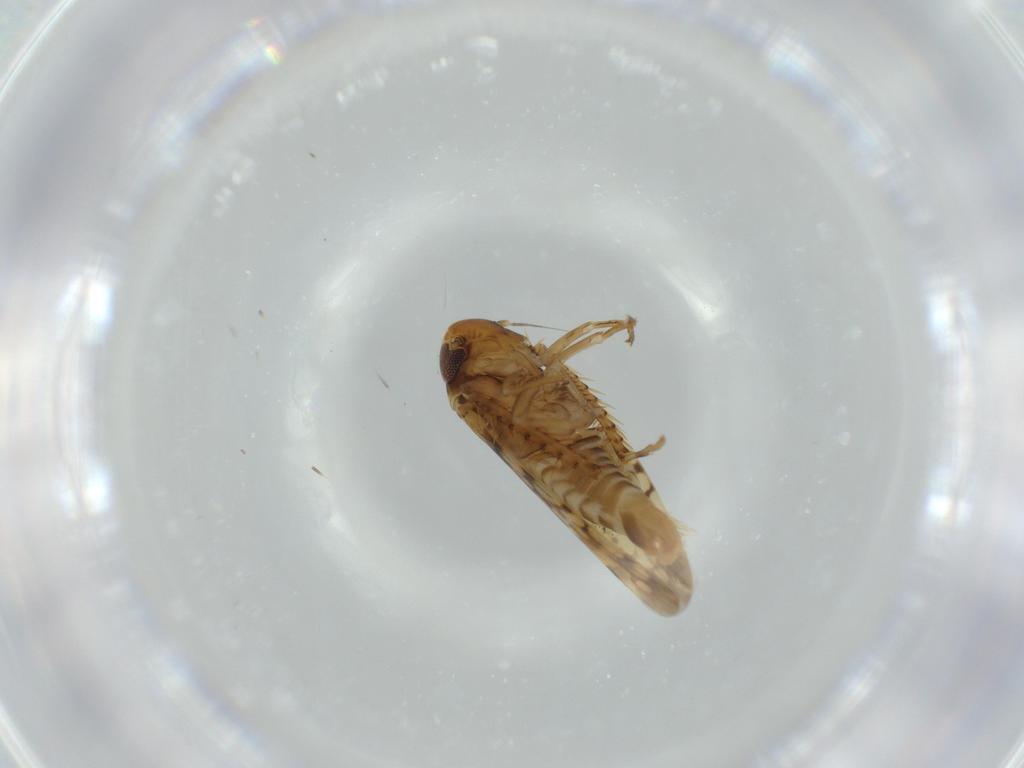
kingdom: Animalia
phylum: Arthropoda
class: Insecta
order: Hemiptera
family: Cicadellidae
